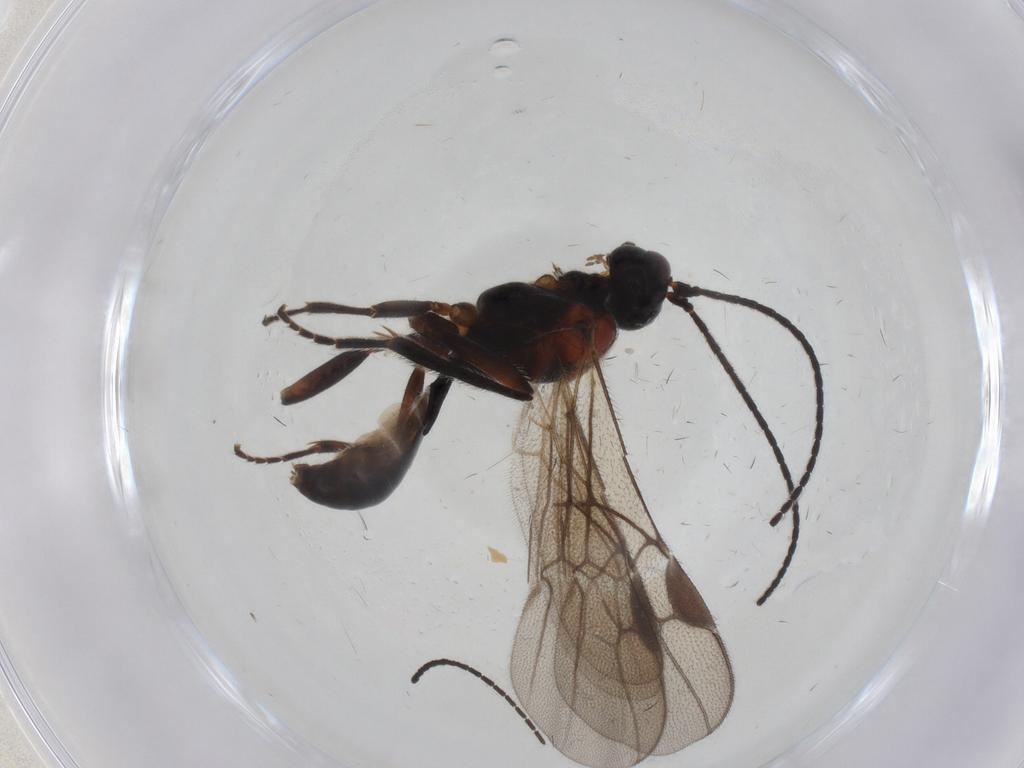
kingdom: Animalia
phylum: Arthropoda
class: Insecta
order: Hymenoptera
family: Braconidae
